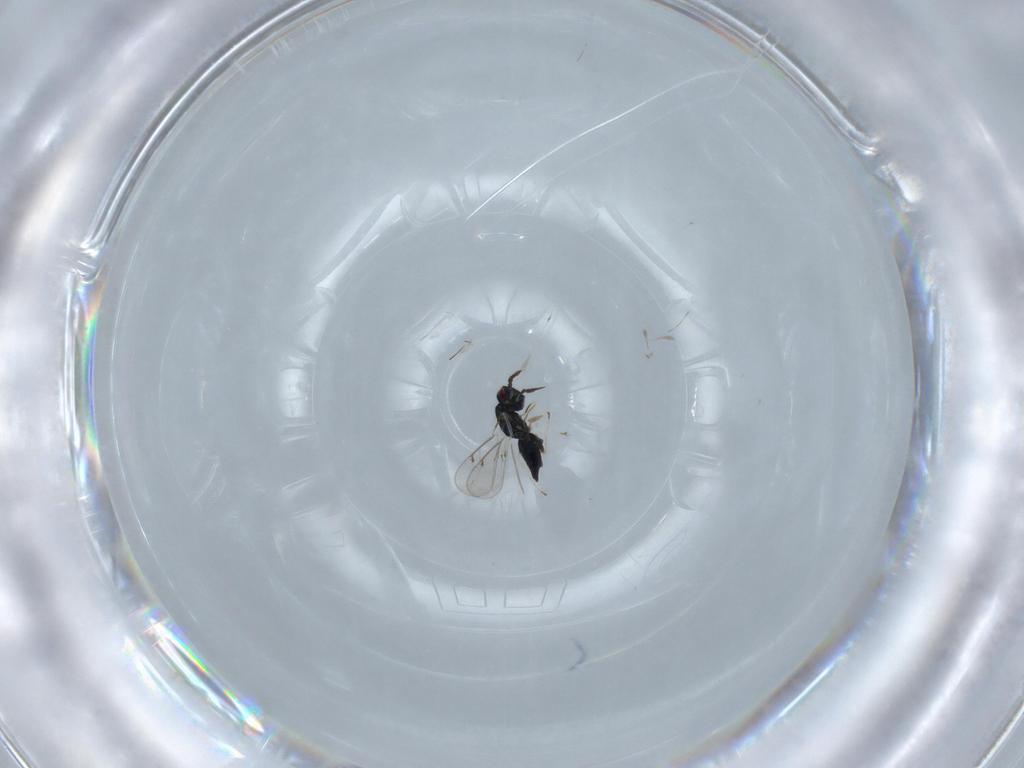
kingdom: Animalia
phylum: Arthropoda
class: Insecta
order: Hymenoptera
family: Eulophidae
